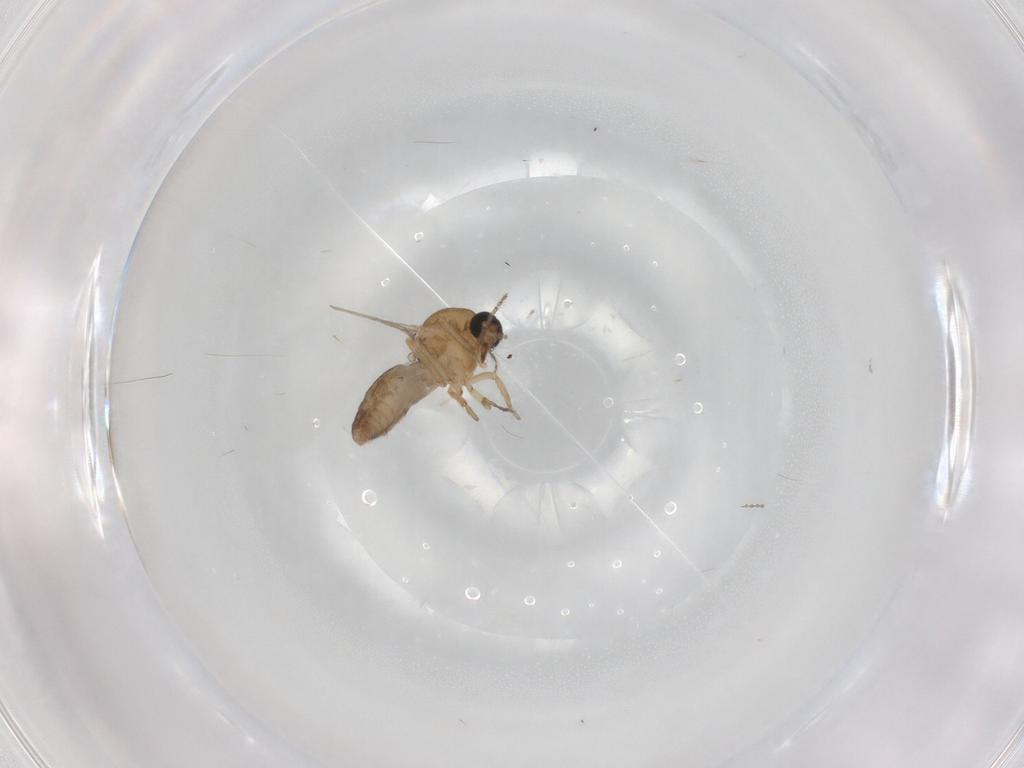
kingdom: Animalia
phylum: Arthropoda
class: Insecta
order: Diptera
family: Ceratopogonidae
